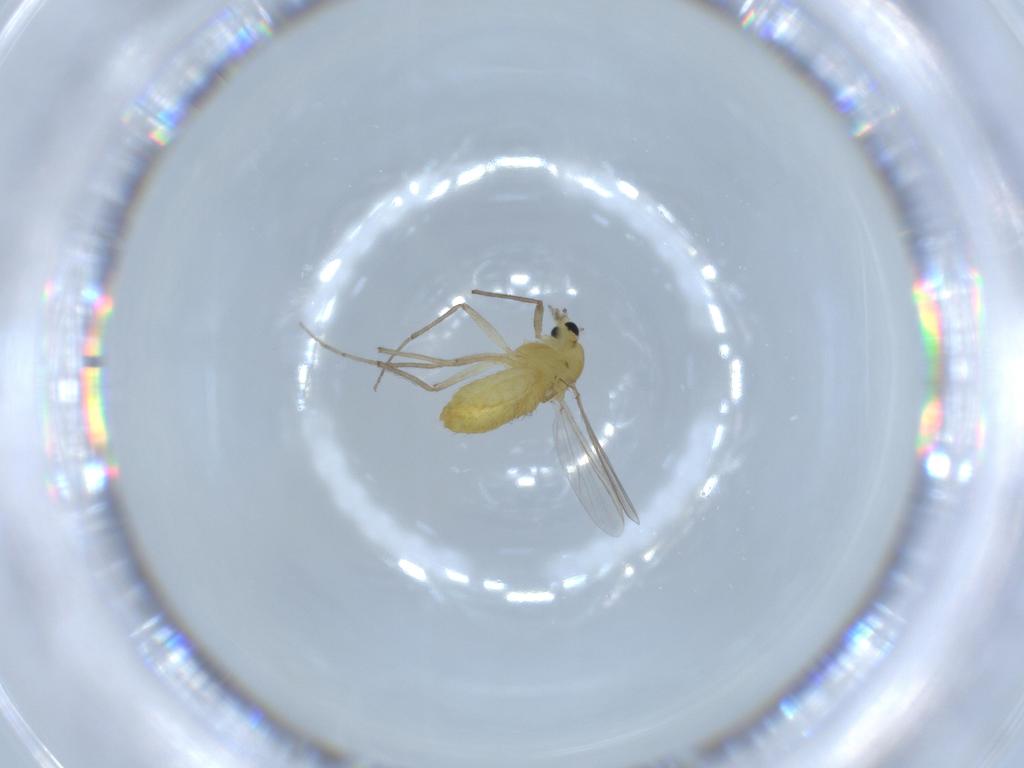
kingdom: Animalia
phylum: Arthropoda
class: Insecta
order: Diptera
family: Chironomidae
